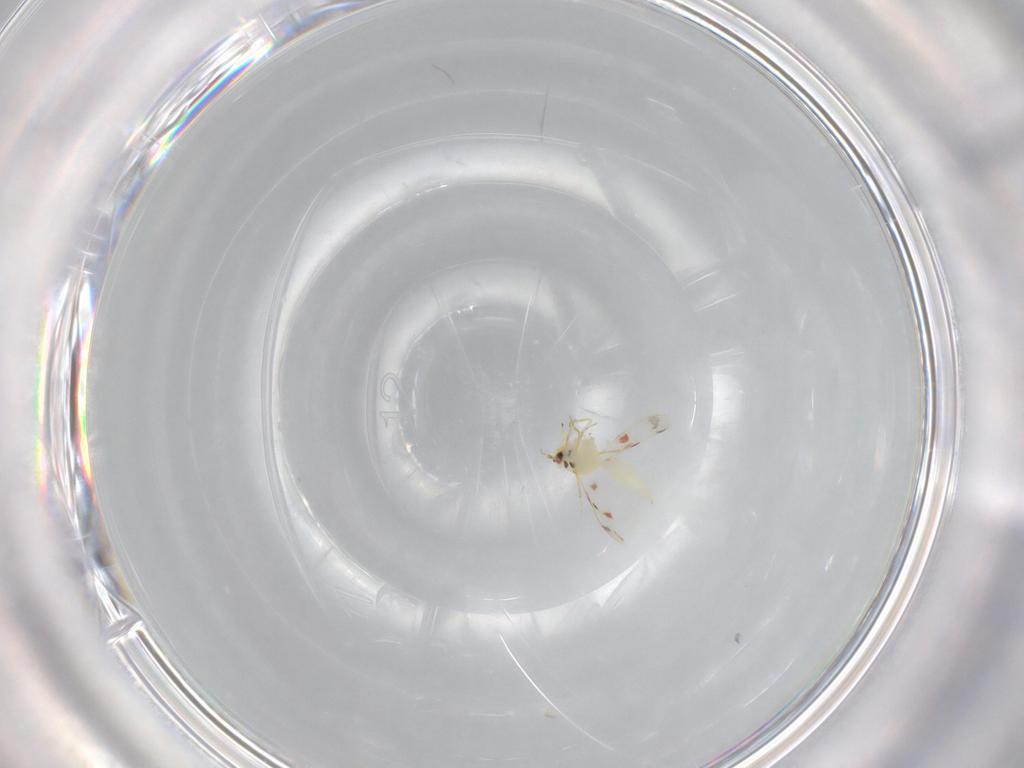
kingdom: Animalia
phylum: Arthropoda
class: Insecta
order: Hemiptera
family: Aleyrodidae
